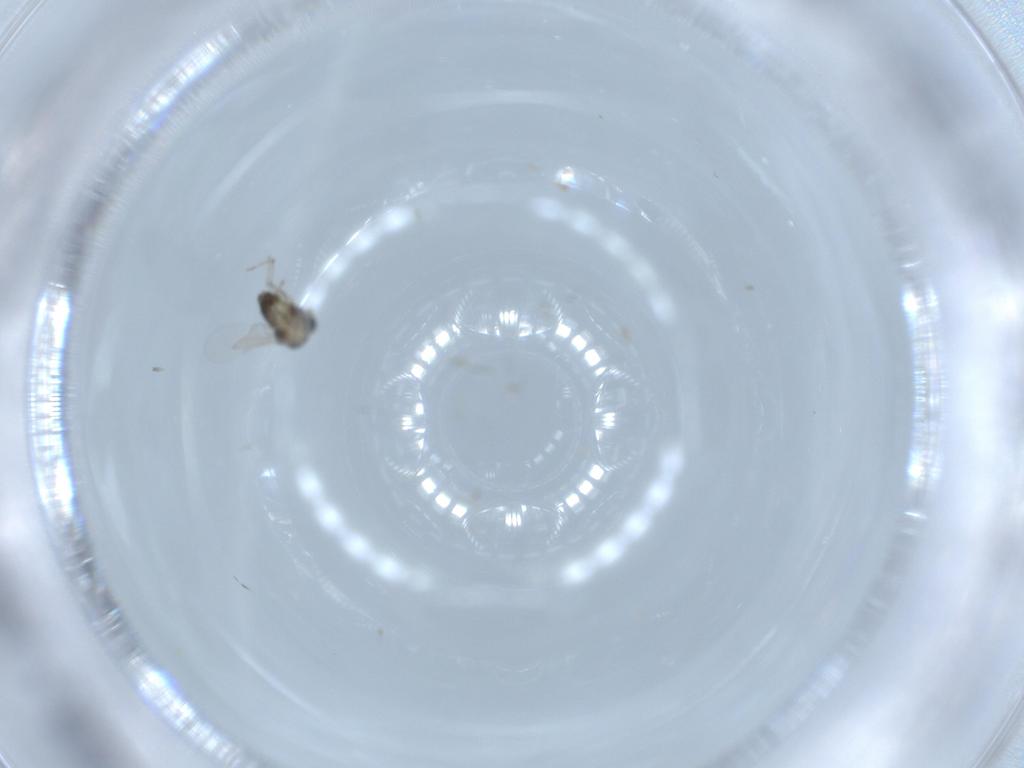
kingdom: Animalia
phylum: Arthropoda
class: Insecta
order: Diptera
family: Chironomidae
